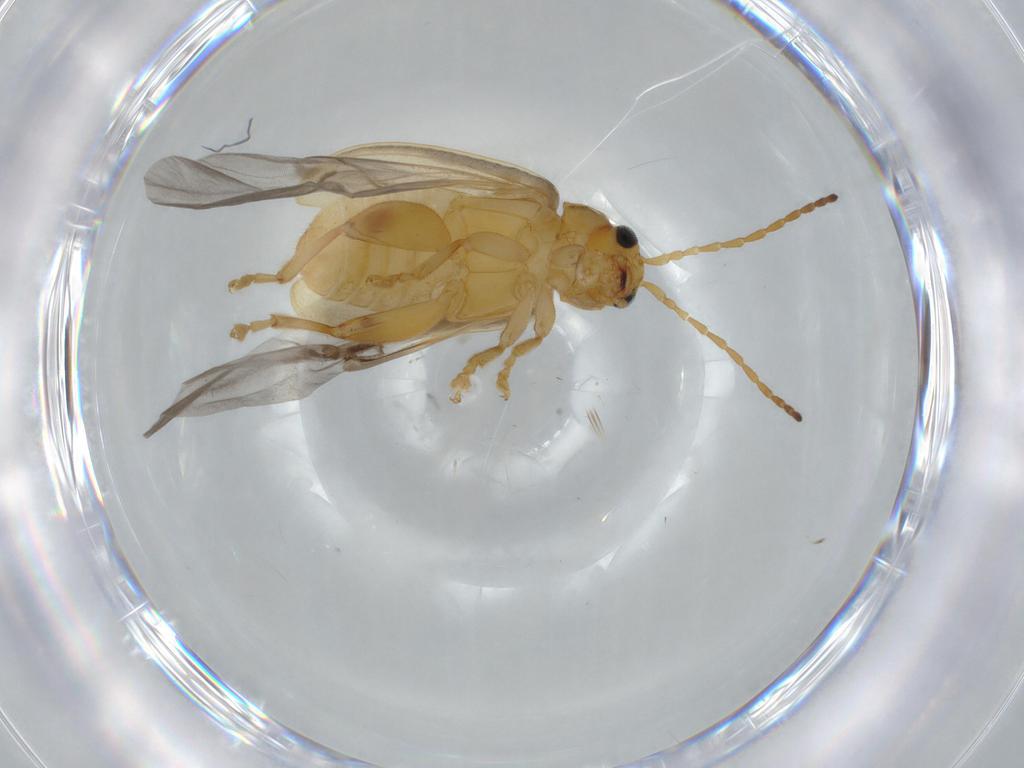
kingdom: Animalia
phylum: Arthropoda
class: Insecta
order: Coleoptera
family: Chrysomelidae
